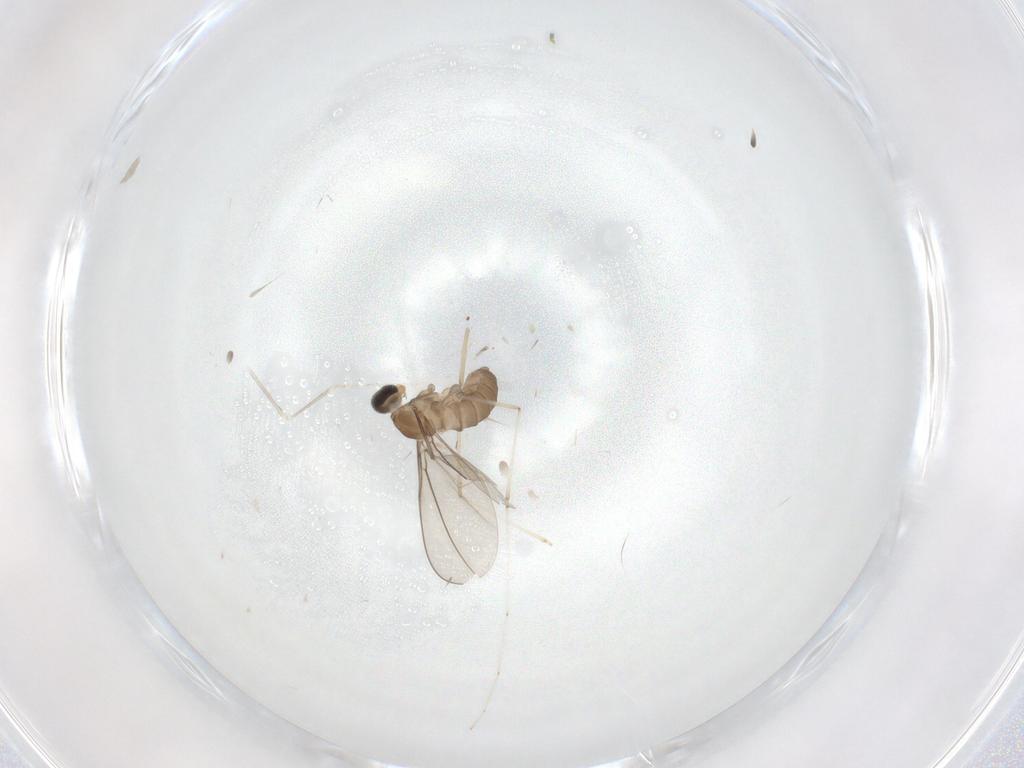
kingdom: Animalia
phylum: Arthropoda
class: Insecta
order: Diptera
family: Cecidomyiidae
